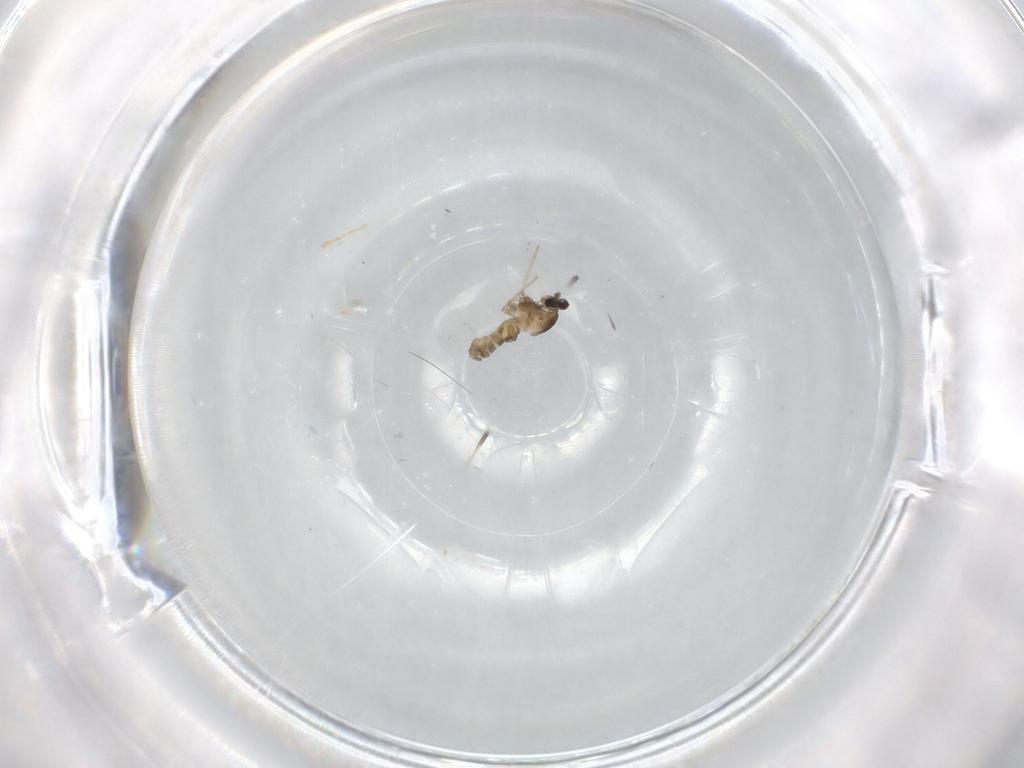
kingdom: Animalia
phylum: Arthropoda
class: Insecta
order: Diptera
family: Cecidomyiidae
